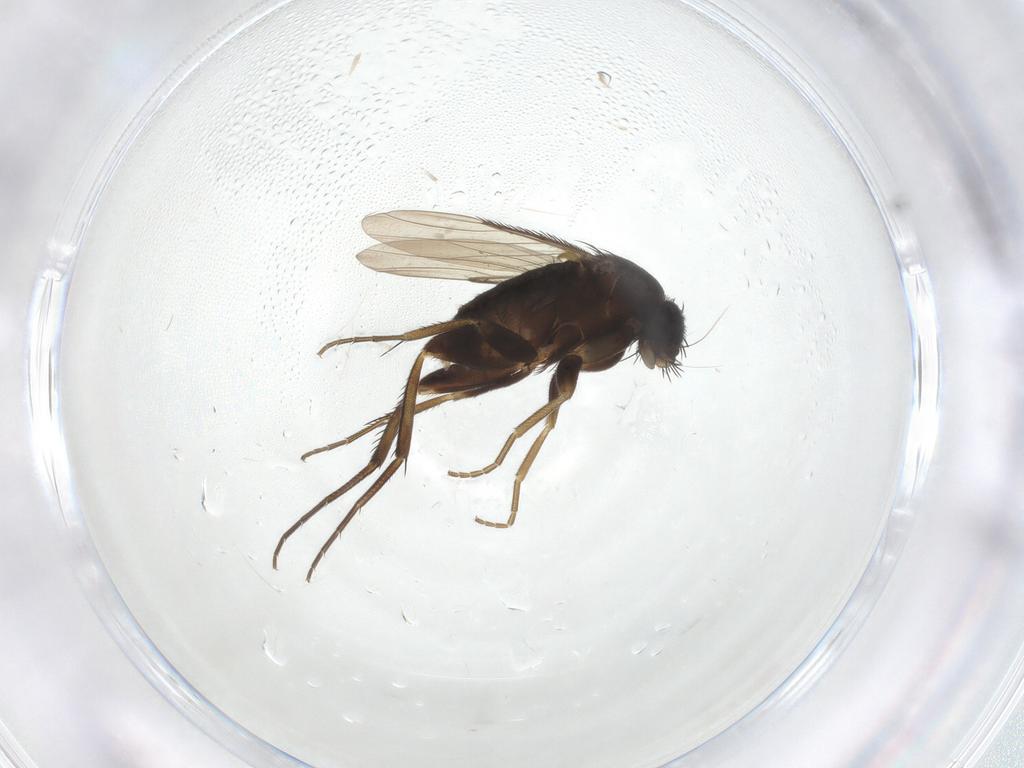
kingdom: Animalia
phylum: Arthropoda
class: Insecta
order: Diptera
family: Phoridae
